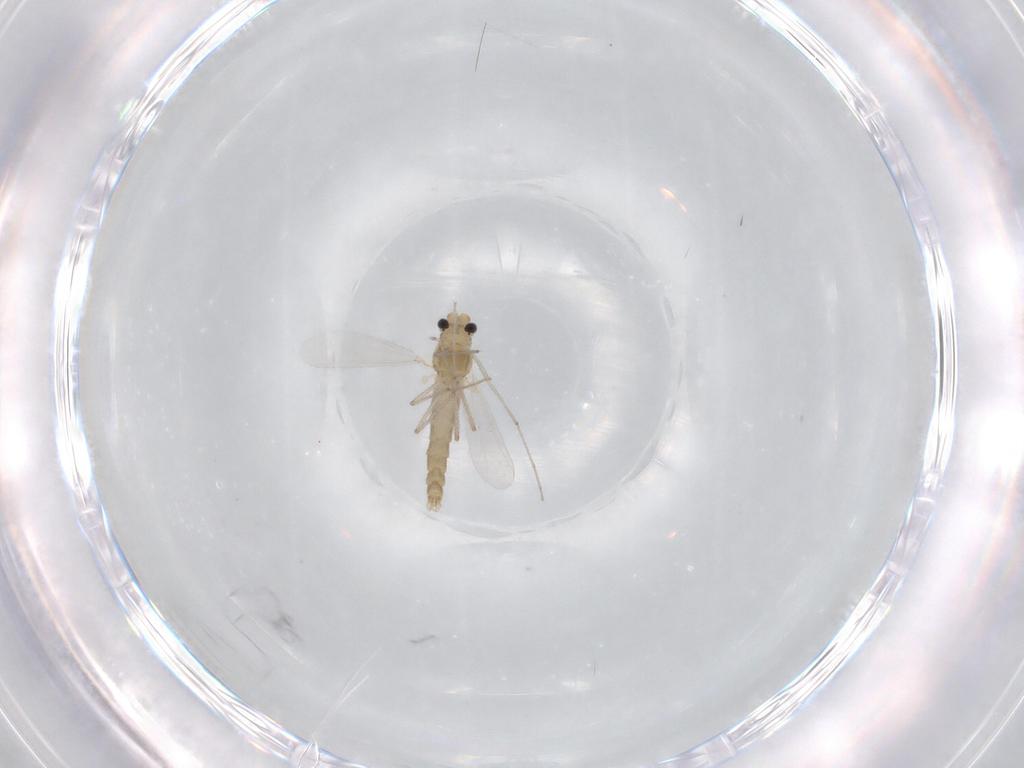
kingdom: Animalia
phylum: Arthropoda
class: Insecta
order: Diptera
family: Chironomidae
